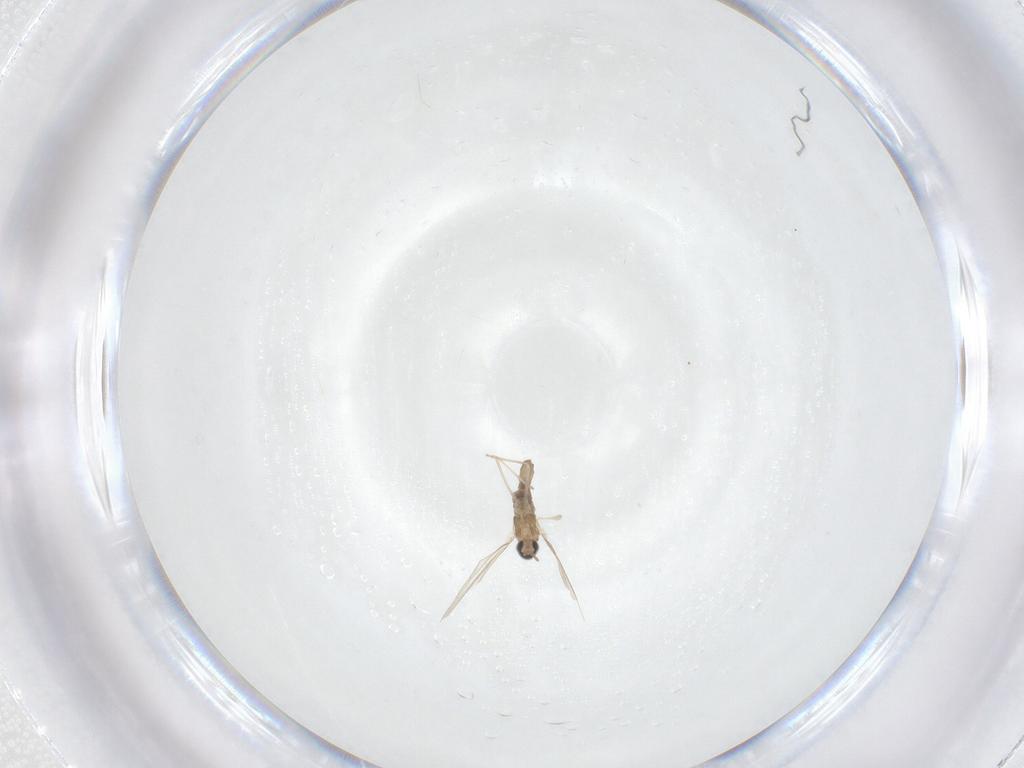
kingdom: Animalia
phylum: Arthropoda
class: Insecta
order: Diptera
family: Cecidomyiidae
